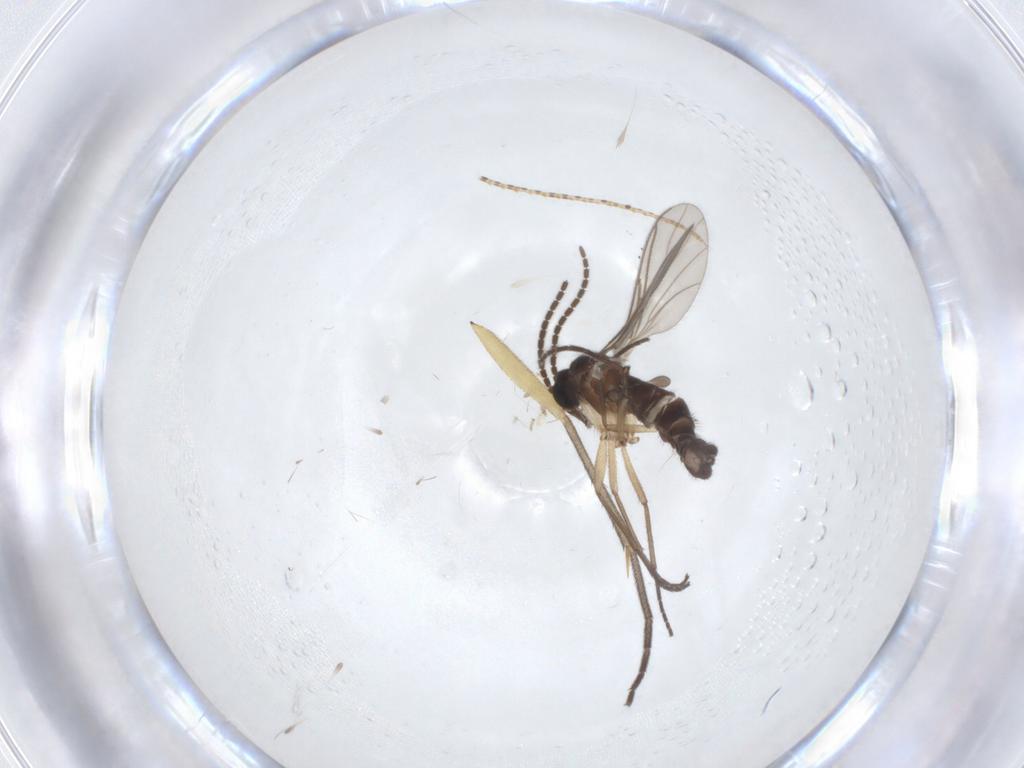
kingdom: Animalia
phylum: Arthropoda
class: Insecta
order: Diptera
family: Sciaridae
